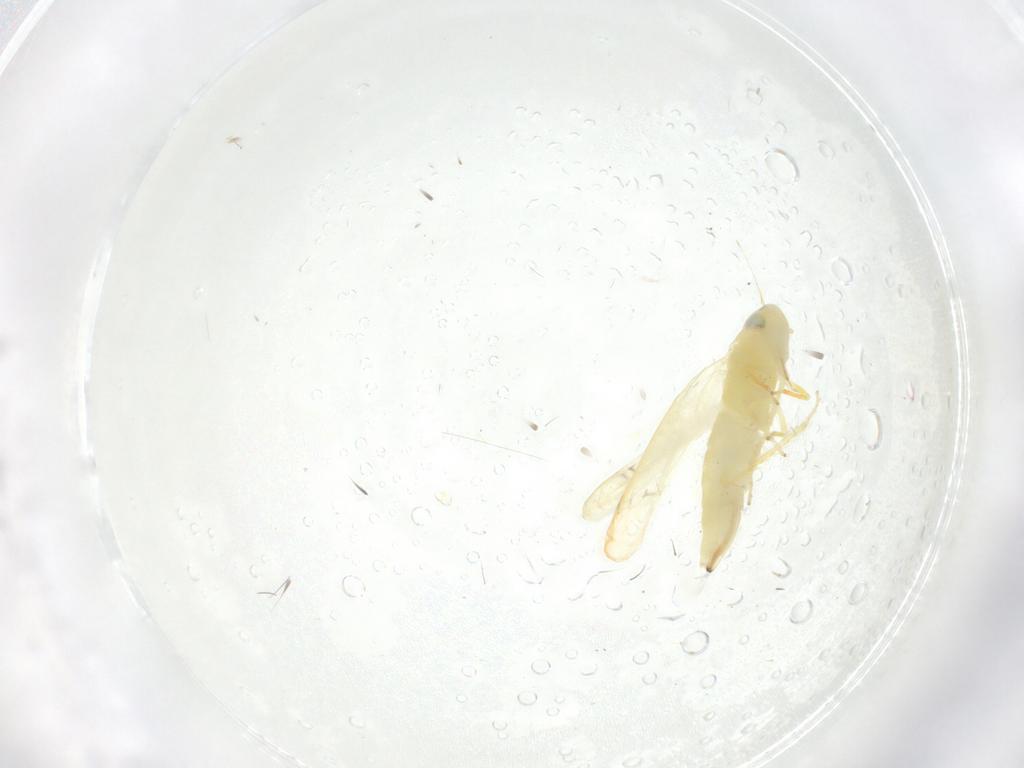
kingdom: Animalia
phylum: Arthropoda
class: Insecta
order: Hemiptera
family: Cicadellidae
